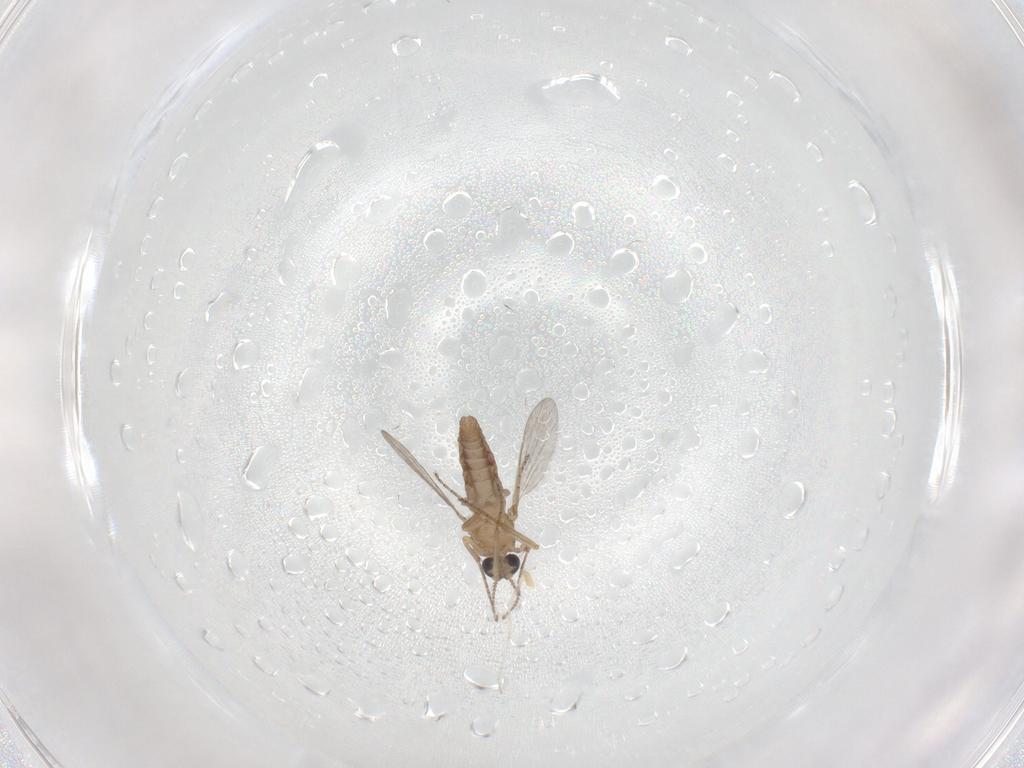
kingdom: Animalia
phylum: Arthropoda
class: Insecta
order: Diptera
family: Ceratopogonidae
